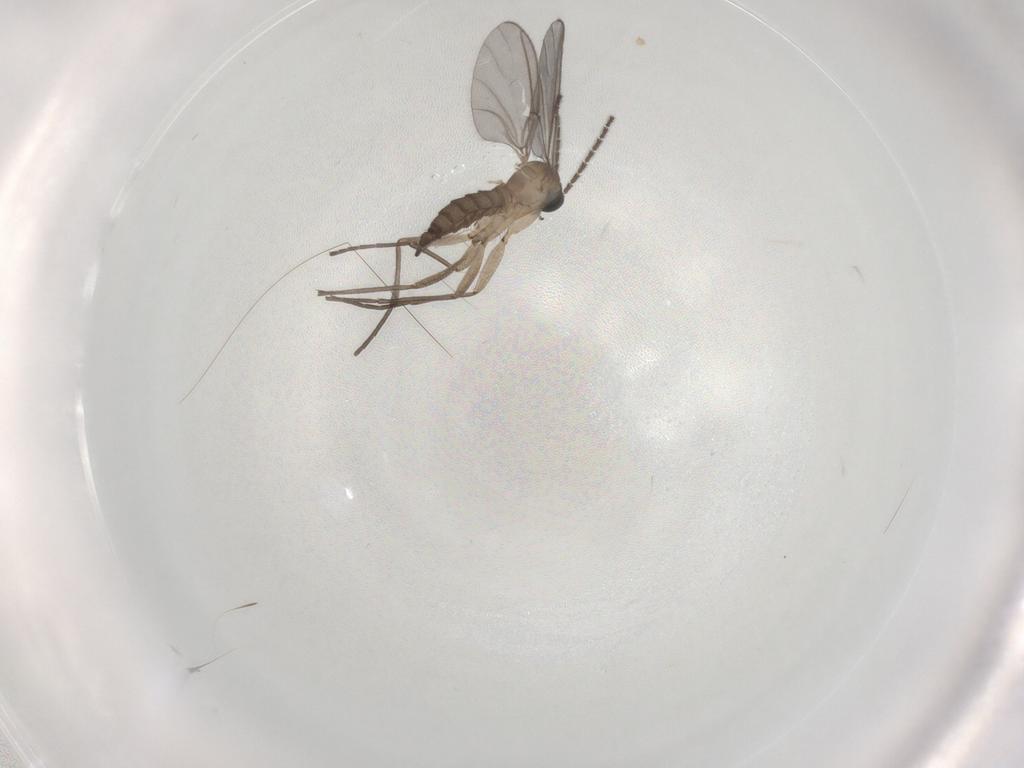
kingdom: Animalia
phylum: Arthropoda
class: Insecta
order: Diptera
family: Sciaridae
